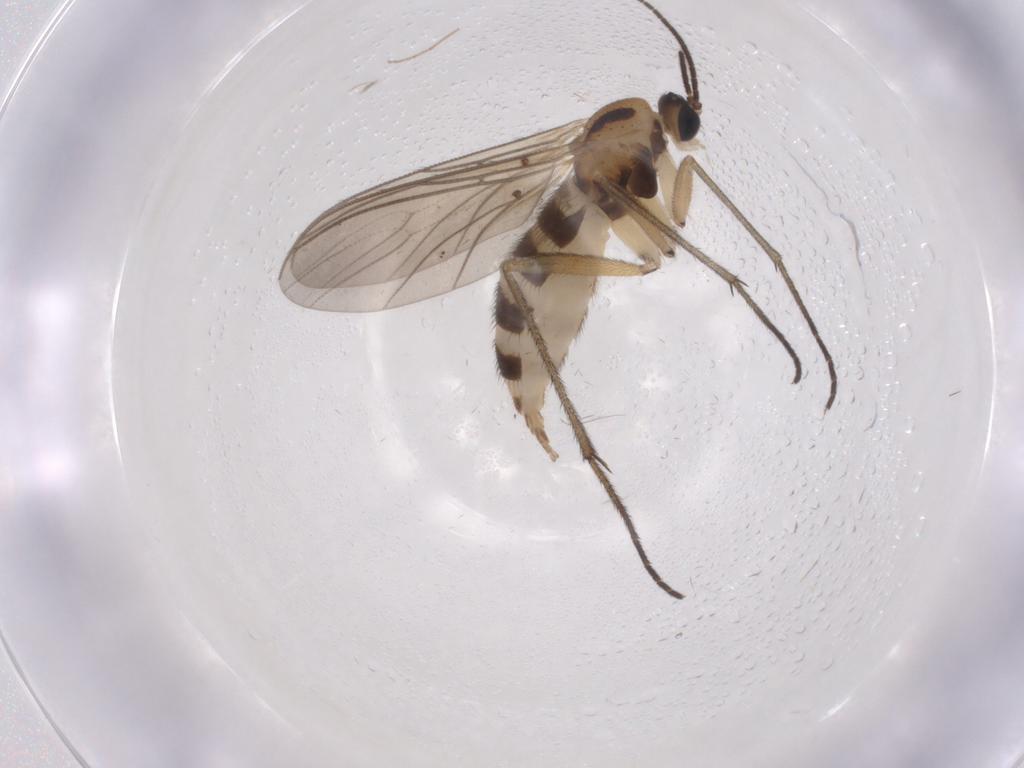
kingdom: Animalia
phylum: Arthropoda
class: Insecta
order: Diptera
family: Sciaridae
